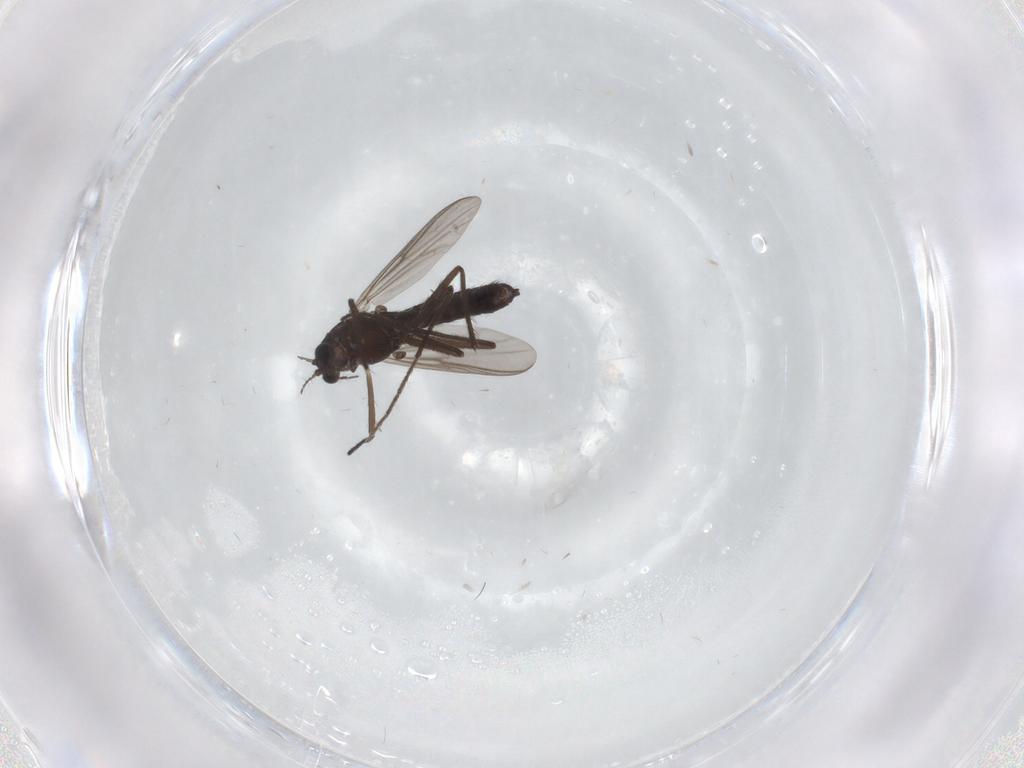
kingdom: Animalia
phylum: Arthropoda
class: Insecta
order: Diptera
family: Chironomidae
